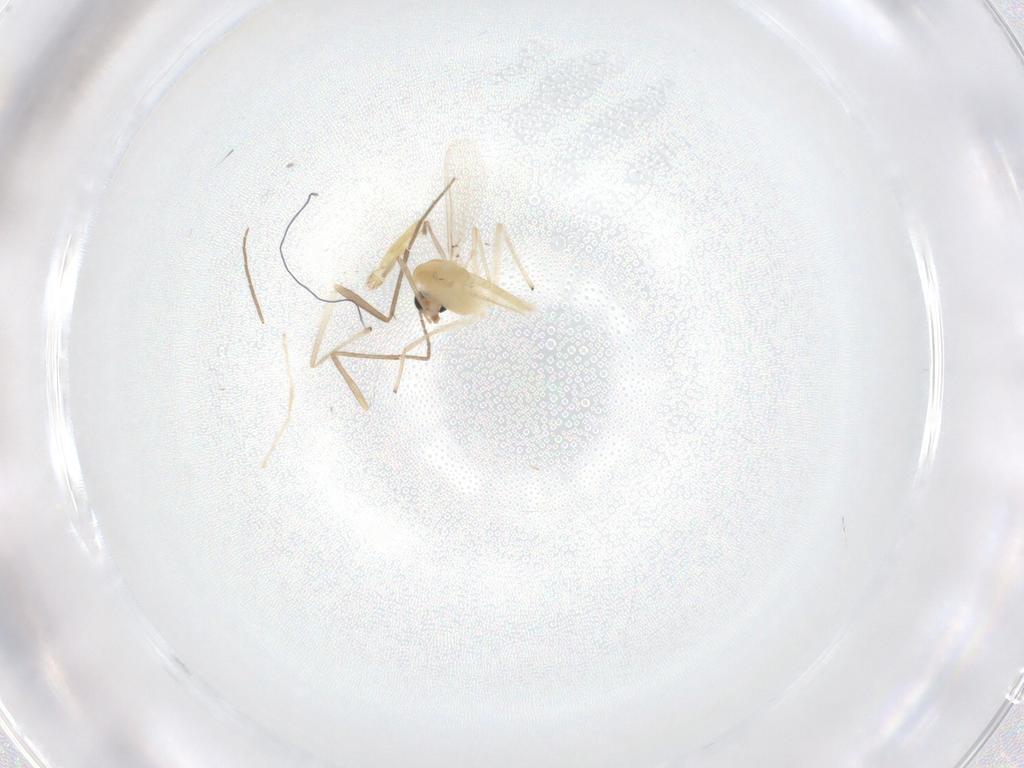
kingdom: Animalia
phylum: Arthropoda
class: Insecta
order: Diptera
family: Chironomidae
